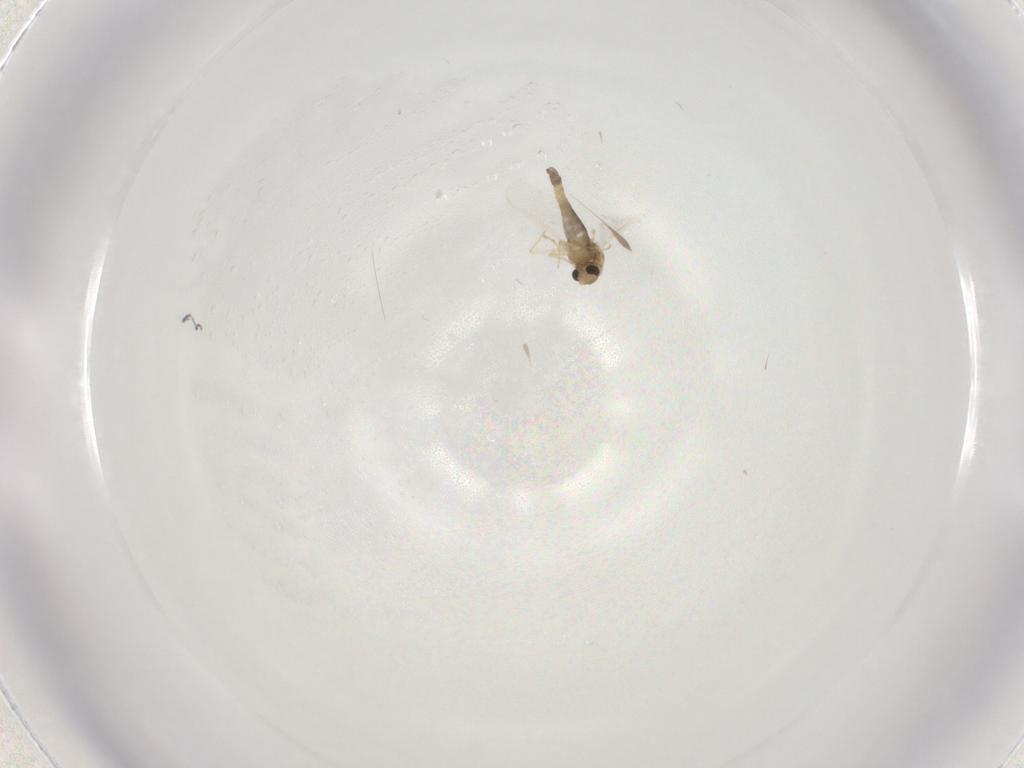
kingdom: Animalia
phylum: Arthropoda
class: Insecta
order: Diptera
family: Chironomidae
